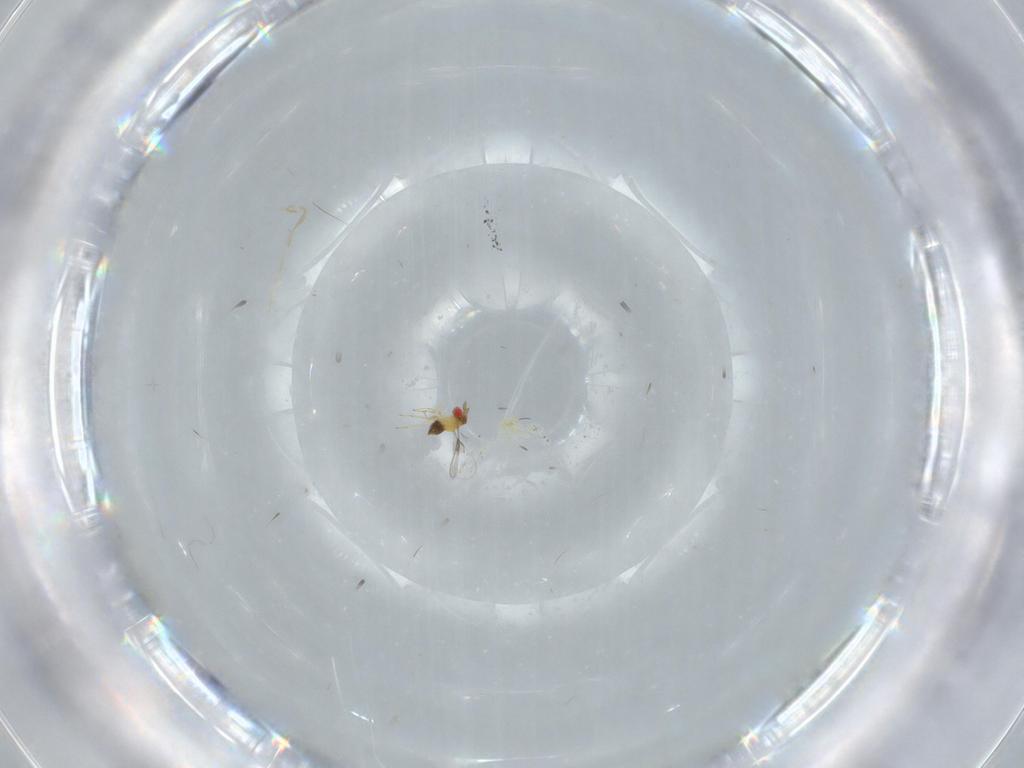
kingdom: Animalia
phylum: Arthropoda
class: Insecta
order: Hymenoptera
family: Trichogrammatidae
